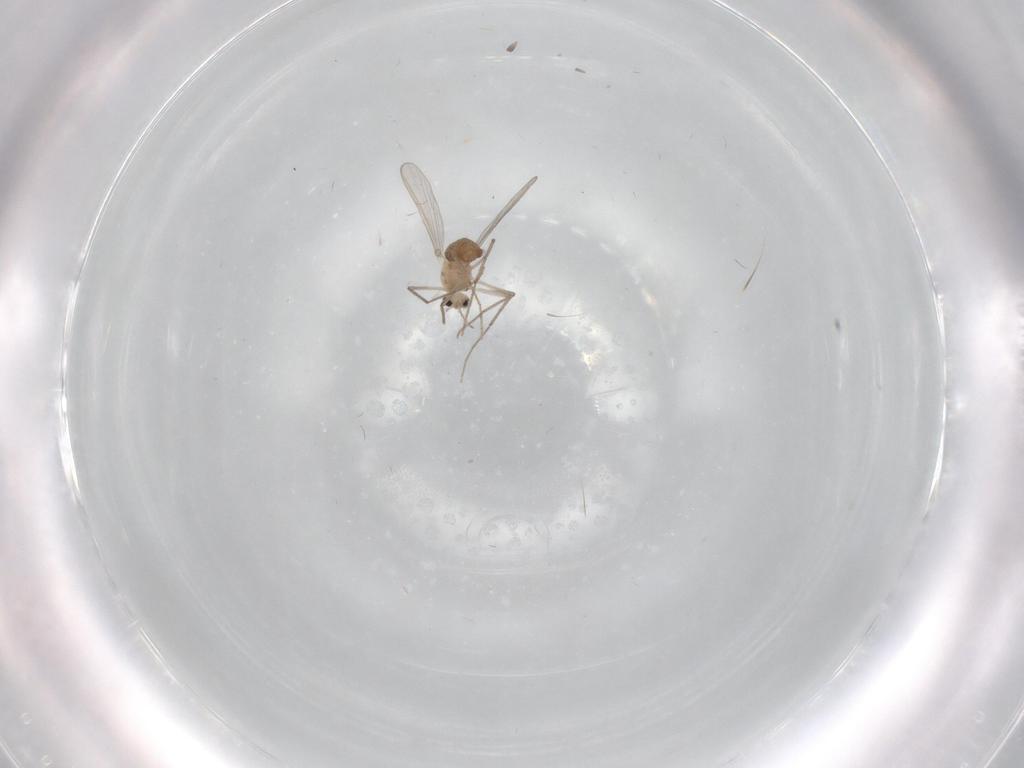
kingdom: Animalia
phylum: Arthropoda
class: Insecta
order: Diptera
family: Chironomidae
